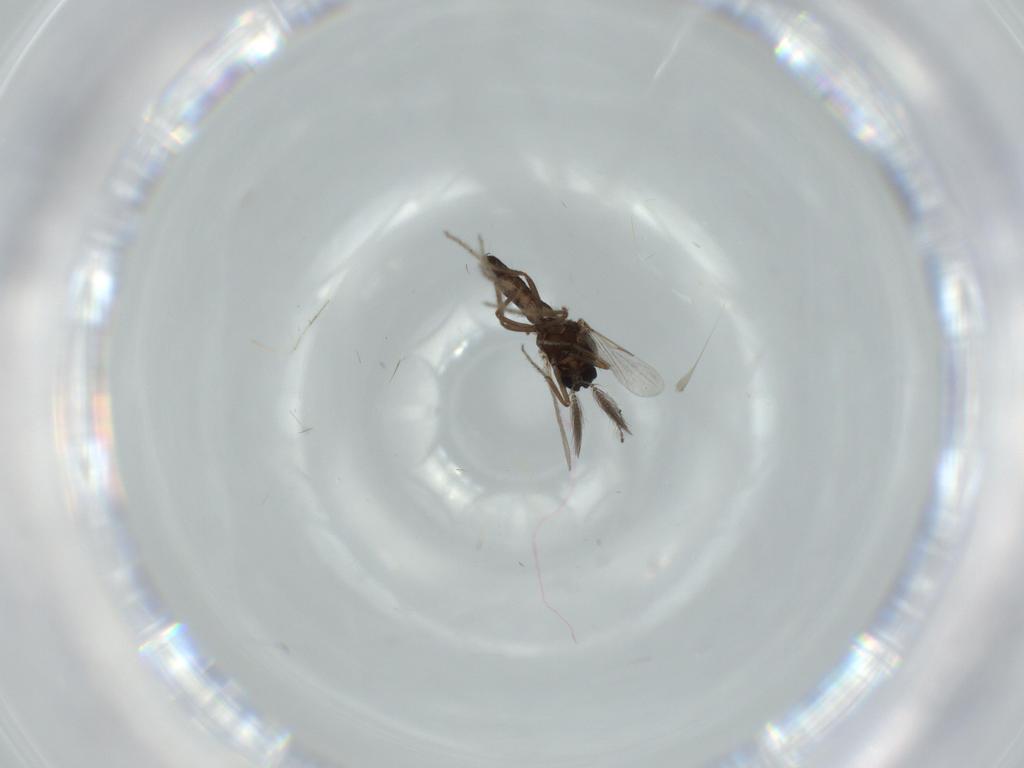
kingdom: Animalia
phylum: Arthropoda
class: Insecta
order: Diptera
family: Ceratopogonidae
